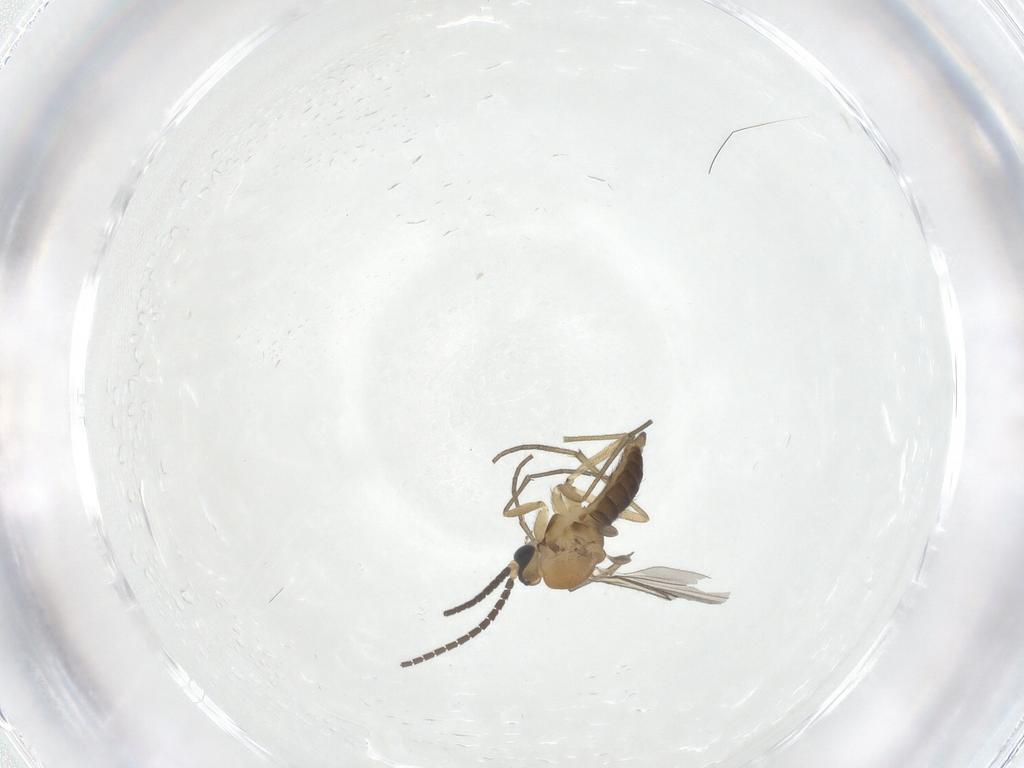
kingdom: Animalia
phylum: Arthropoda
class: Insecta
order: Diptera
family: Sciaridae
